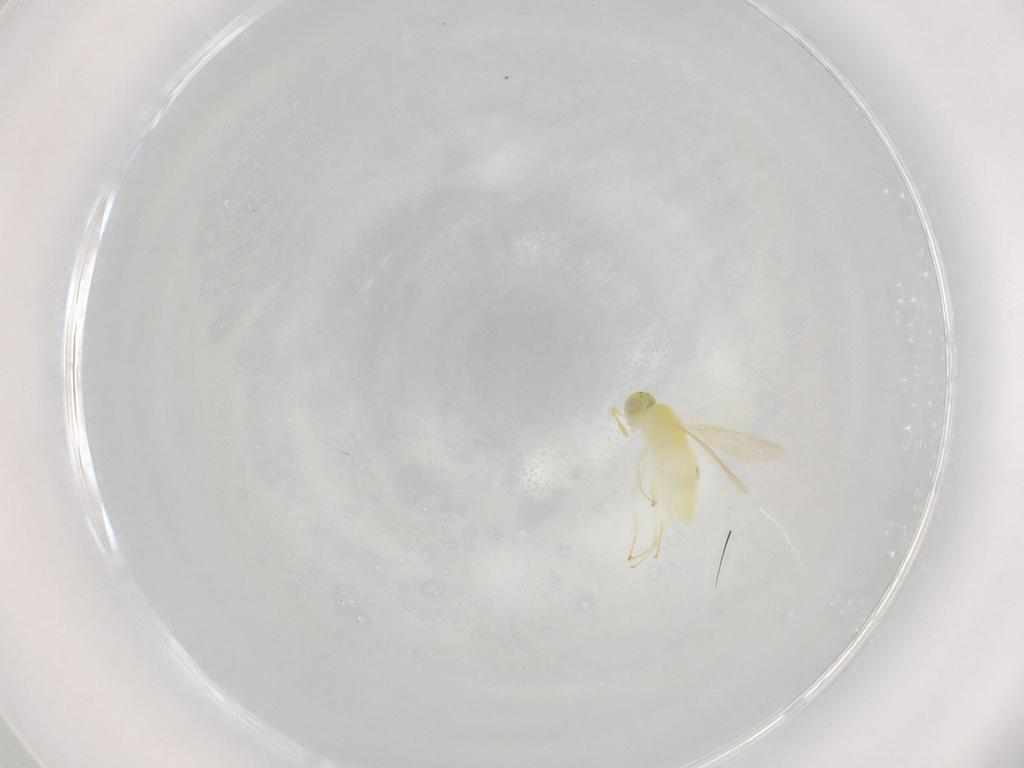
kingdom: Animalia
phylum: Arthropoda
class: Insecta
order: Hymenoptera
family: Aphelinidae
